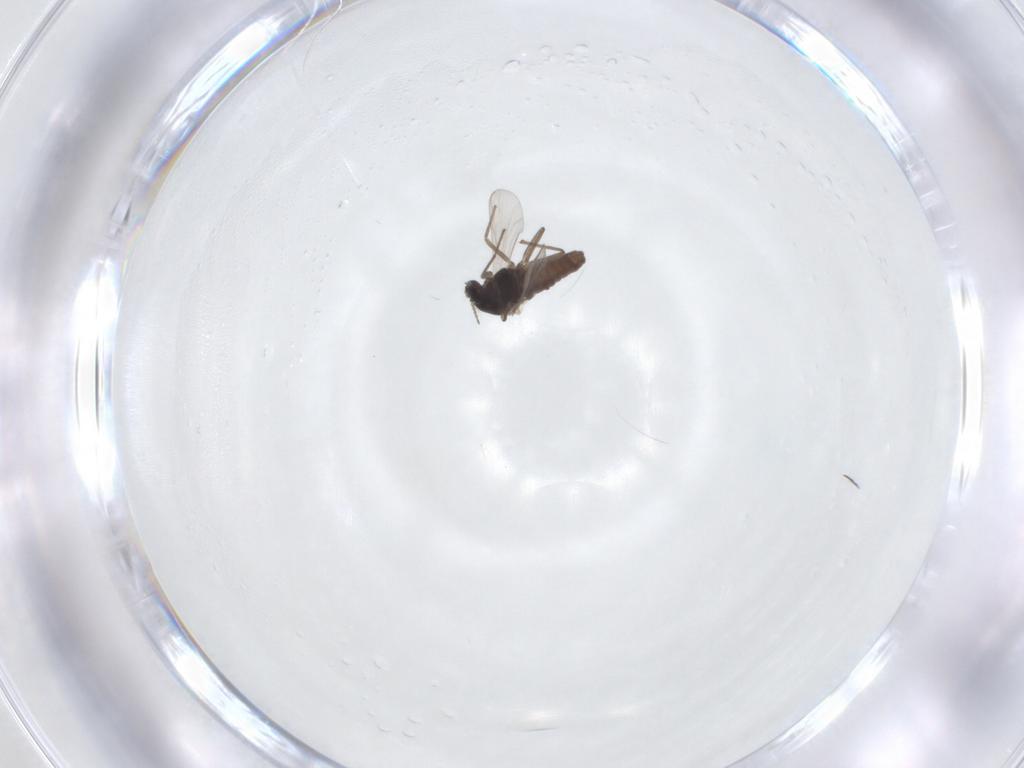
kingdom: Animalia
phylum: Arthropoda
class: Insecta
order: Diptera
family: Chironomidae
